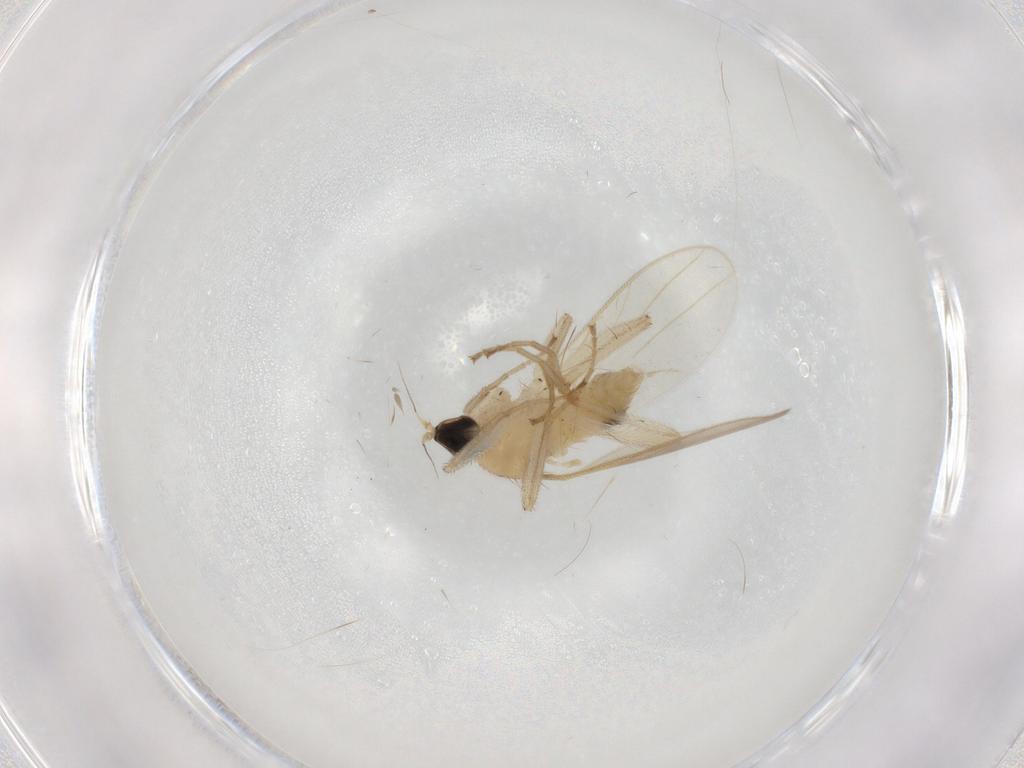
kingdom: Animalia
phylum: Arthropoda
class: Insecta
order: Diptera
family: Hybotidae
